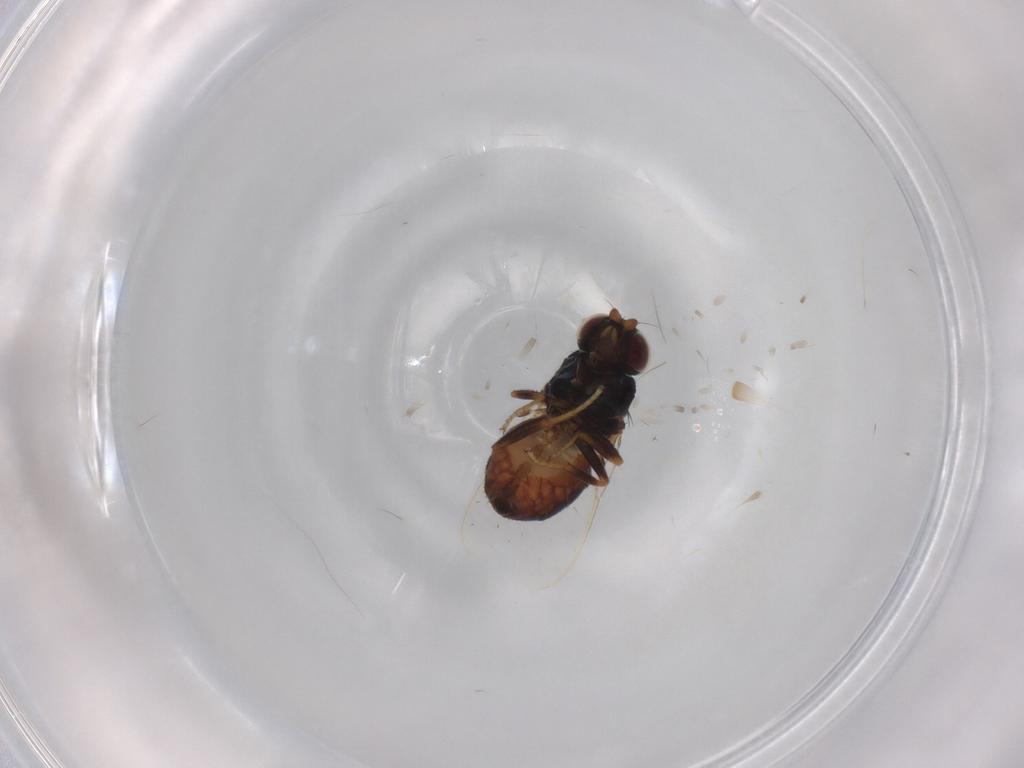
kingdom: Animalia
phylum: Arthropoda
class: Insecta
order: Diptera
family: Chloropidae
